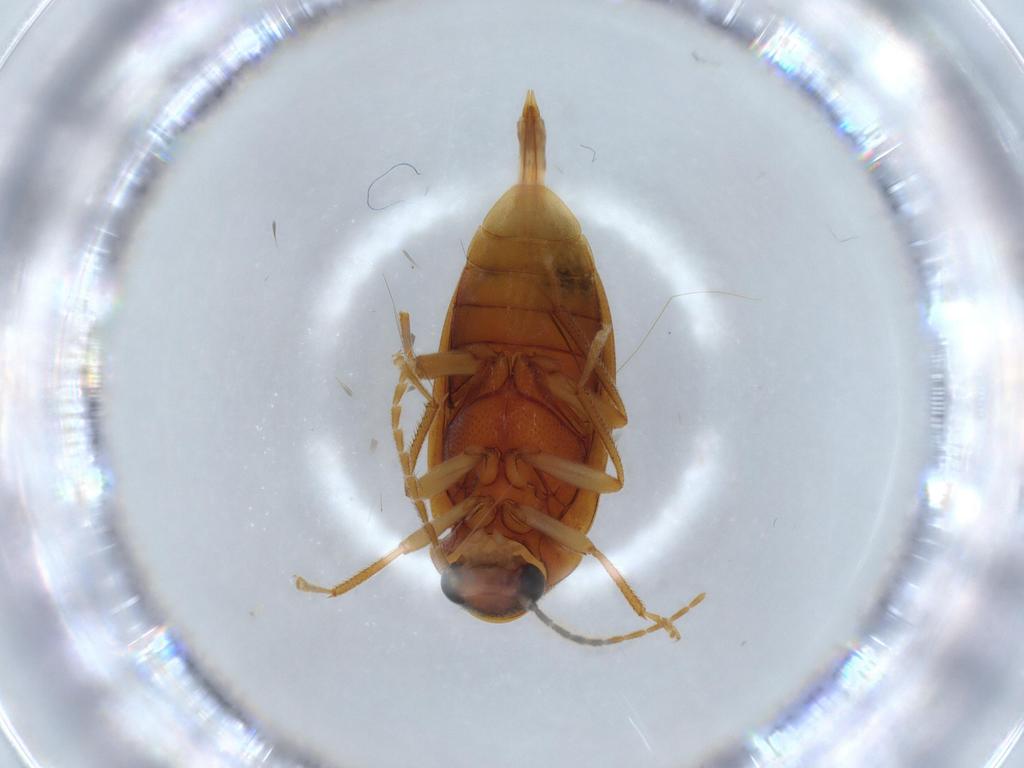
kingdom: Animalia
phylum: Arthropoda
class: Insecta
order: Coleoptera
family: Ptilodactylidae
